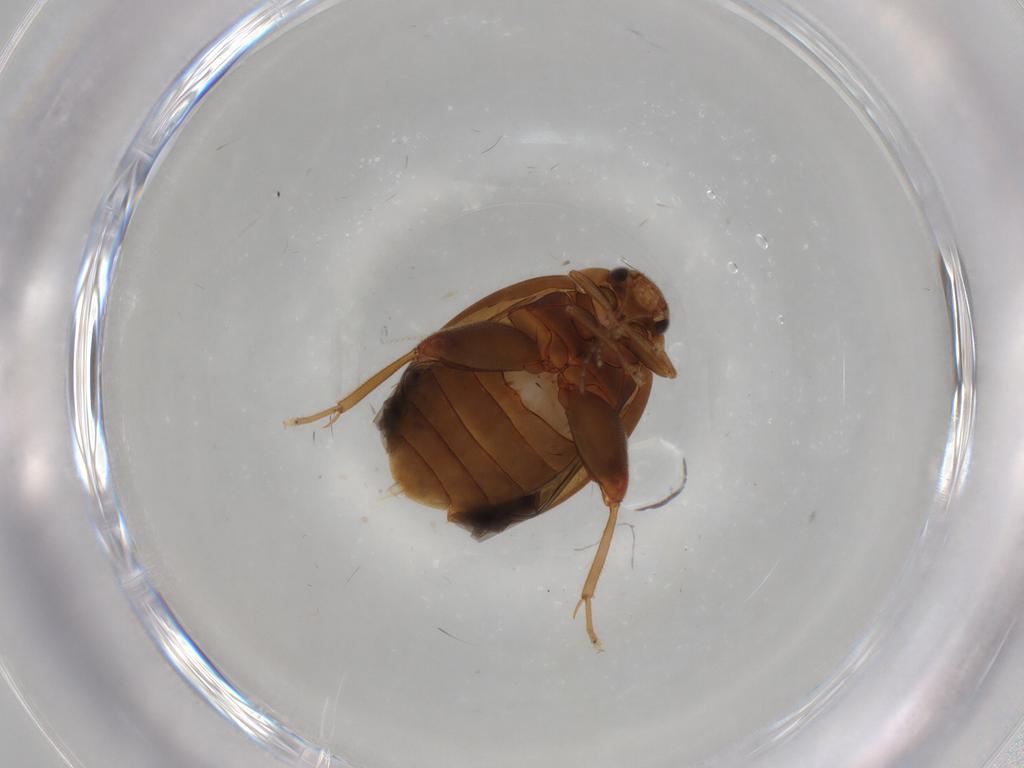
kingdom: Animalia
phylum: Arthropoda
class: Insecta
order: Coleoptera
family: Scirtidae
